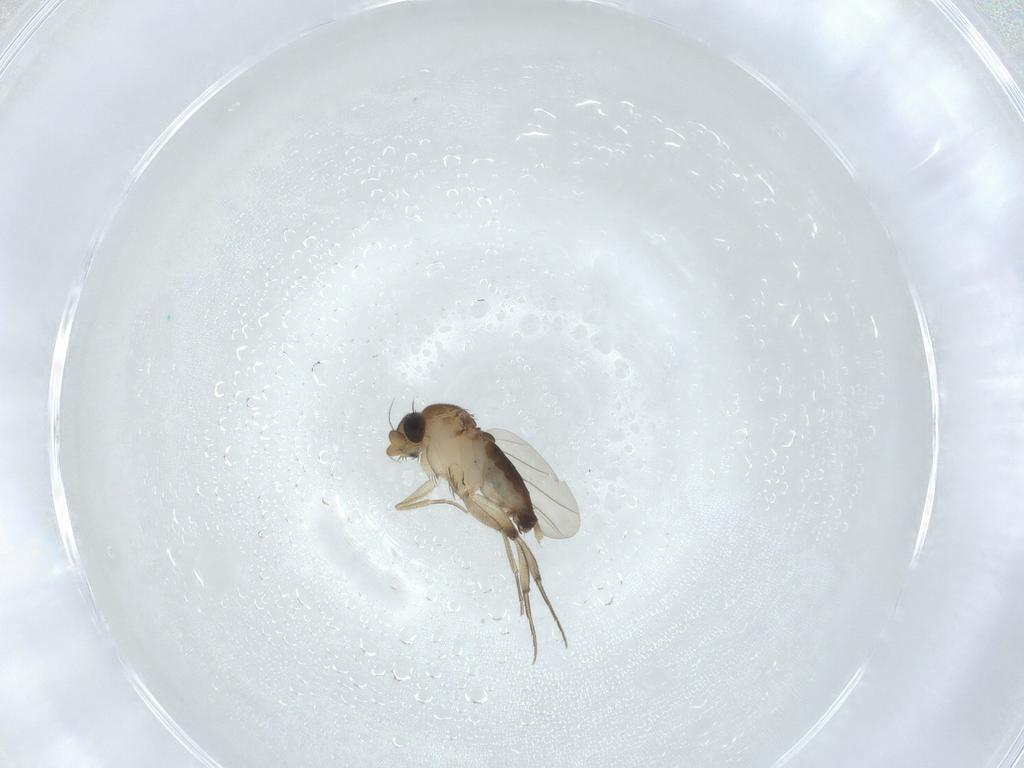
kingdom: Animalia
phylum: Arthropoda
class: Insecta
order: Diptera
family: Phoridae
